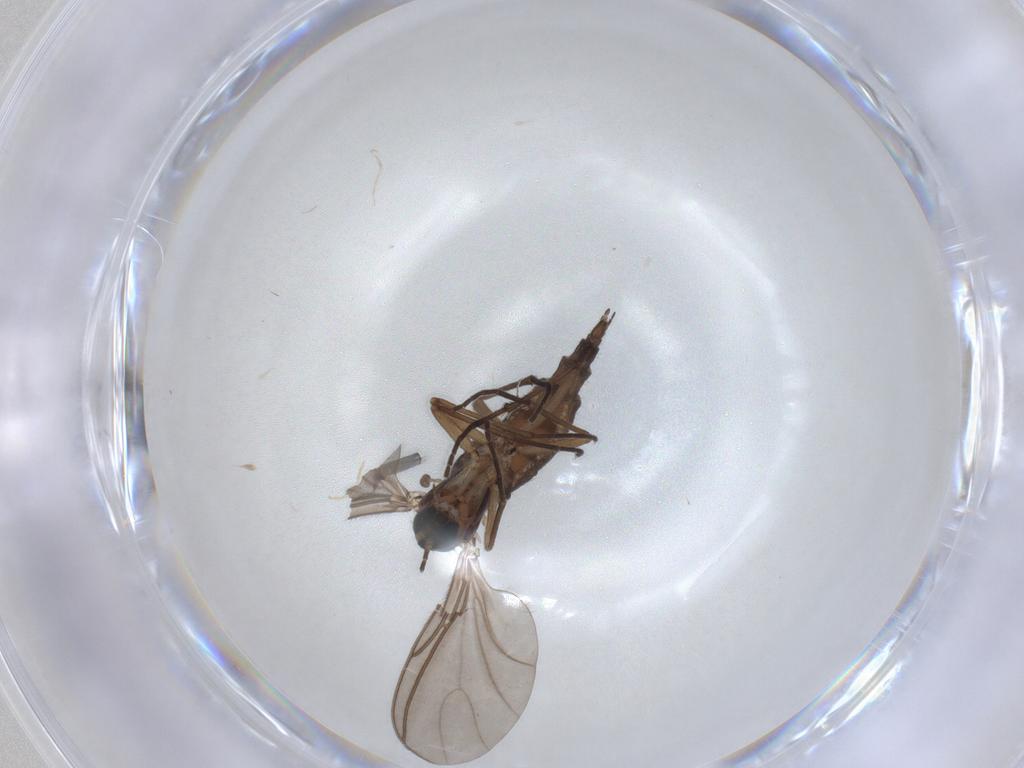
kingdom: Animalia
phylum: Arthropoda
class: Insecta
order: Diptera
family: Sciaridae
